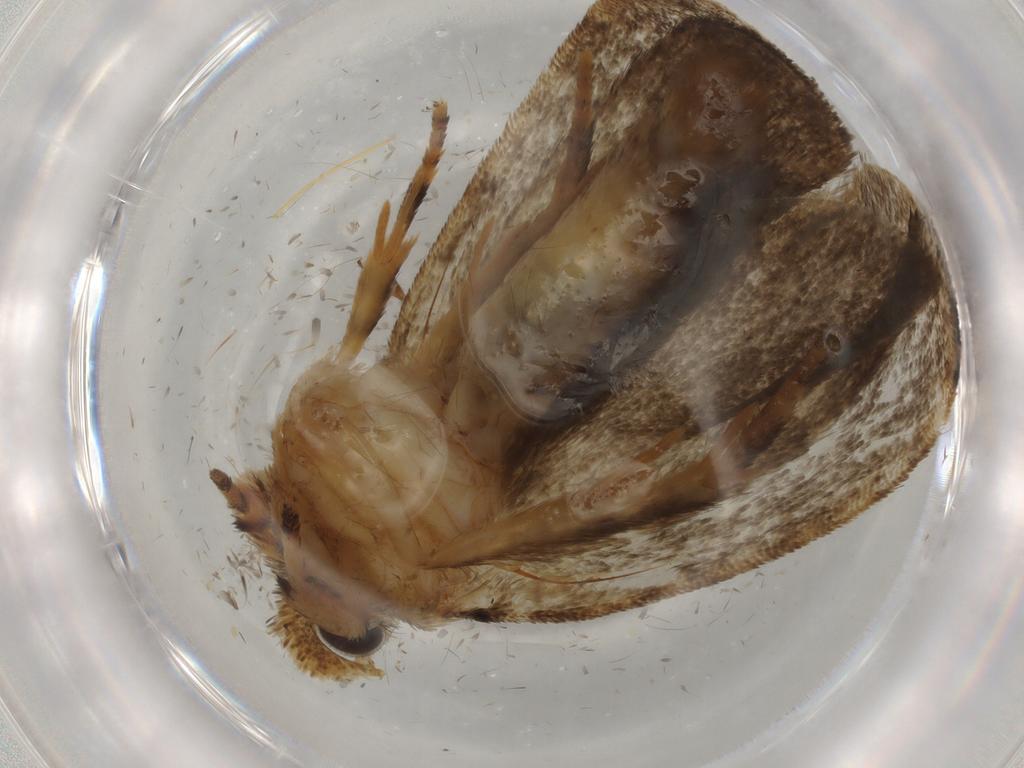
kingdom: Animalia
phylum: Arthropoda
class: Insecta
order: Lepidoptera
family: Tineidae
